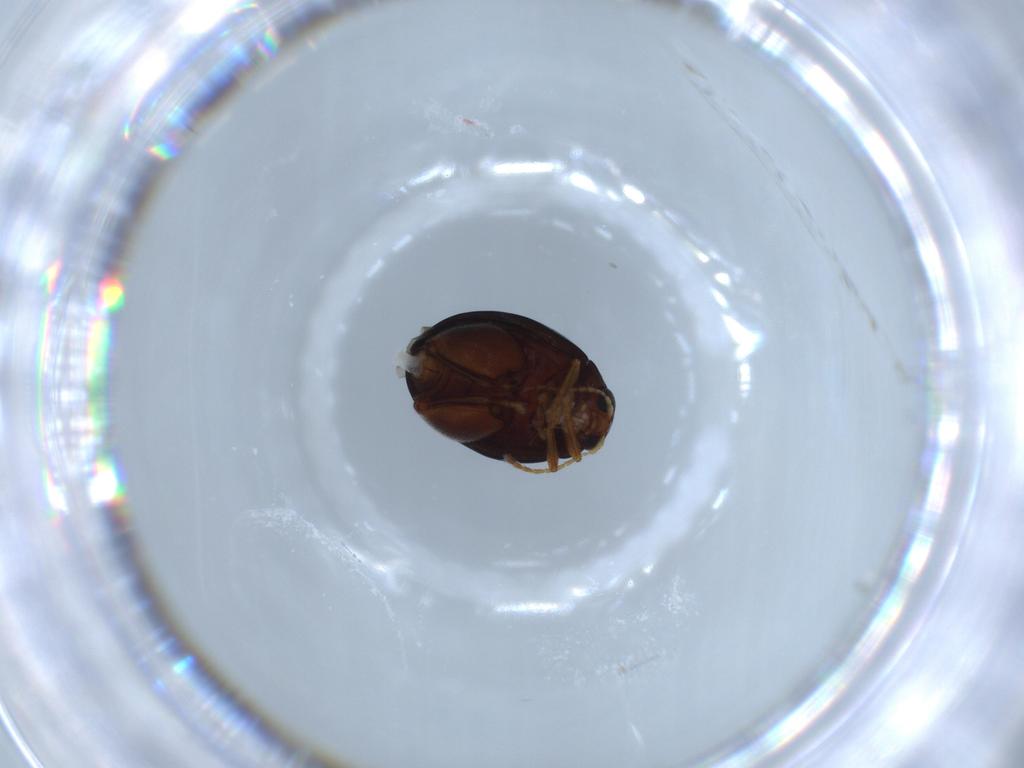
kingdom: Animalia
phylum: Arthropoda
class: Insecta
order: Coleoptera
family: Chrysomelidae
